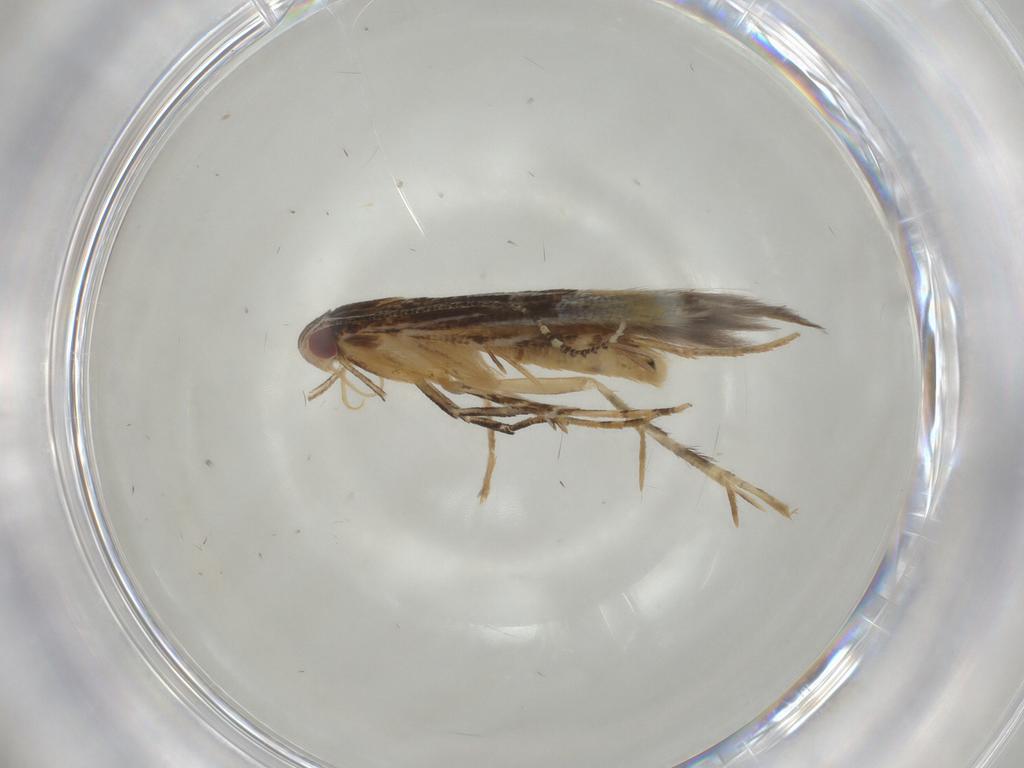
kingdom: Animalia
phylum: Arthropoda
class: Insecta
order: Lepidoptera
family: Cosmopterigidae
